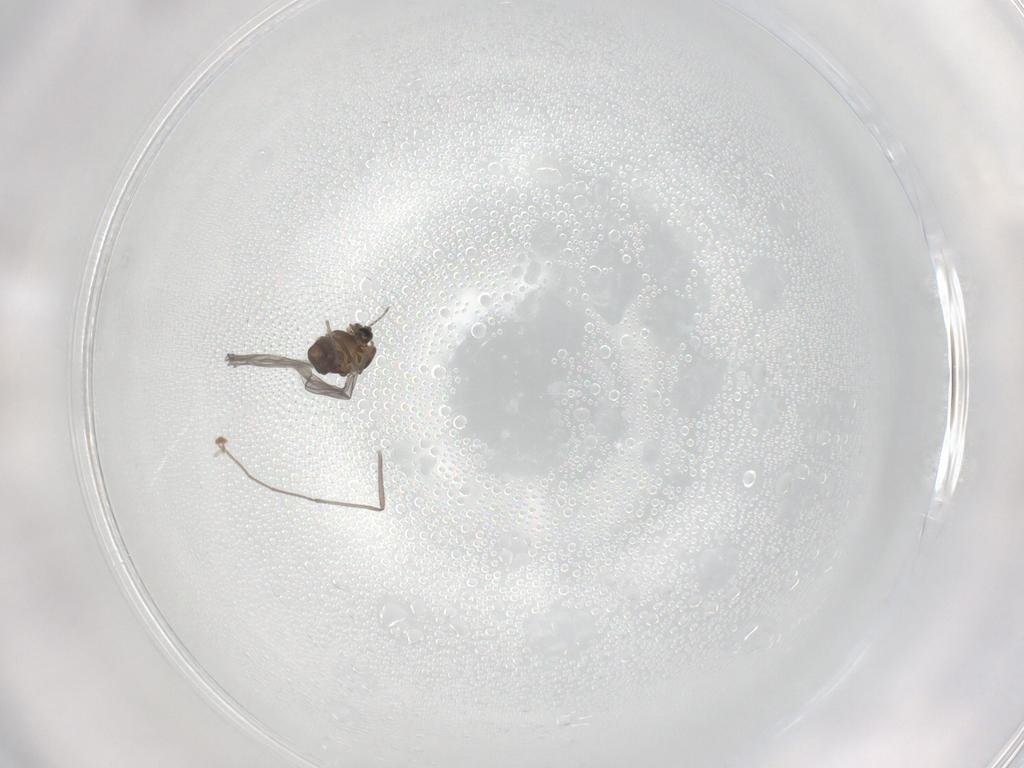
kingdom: Animalia
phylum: Arthropoda
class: Insecta
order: Diptera
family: Chironomidae
